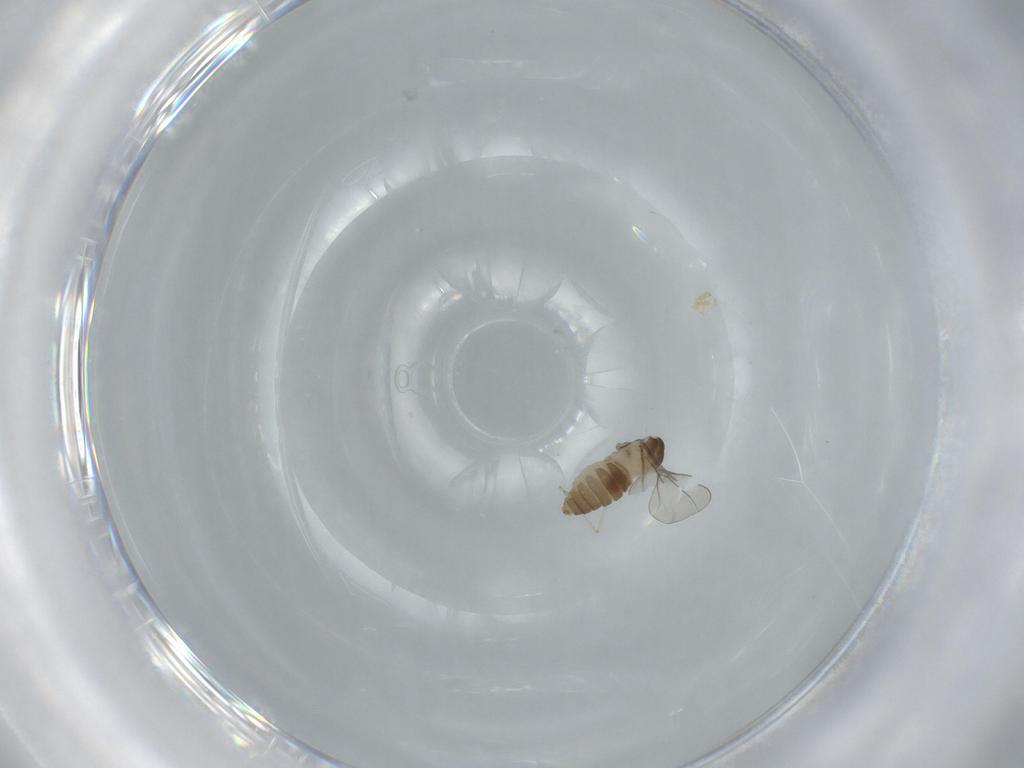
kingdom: Animalia
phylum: Arthropoda
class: Insecta
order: Diptera
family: Cecidomyiidae
